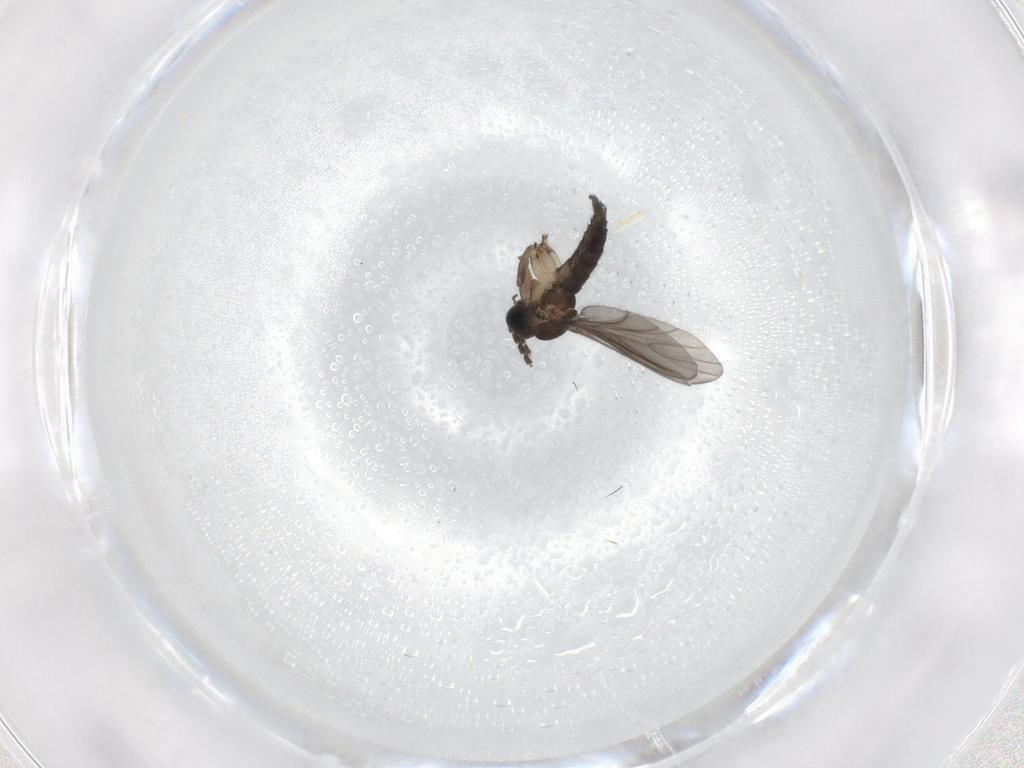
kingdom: Animalia
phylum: Arthropoda
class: Insecta
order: Diptera
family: Sciaridae
